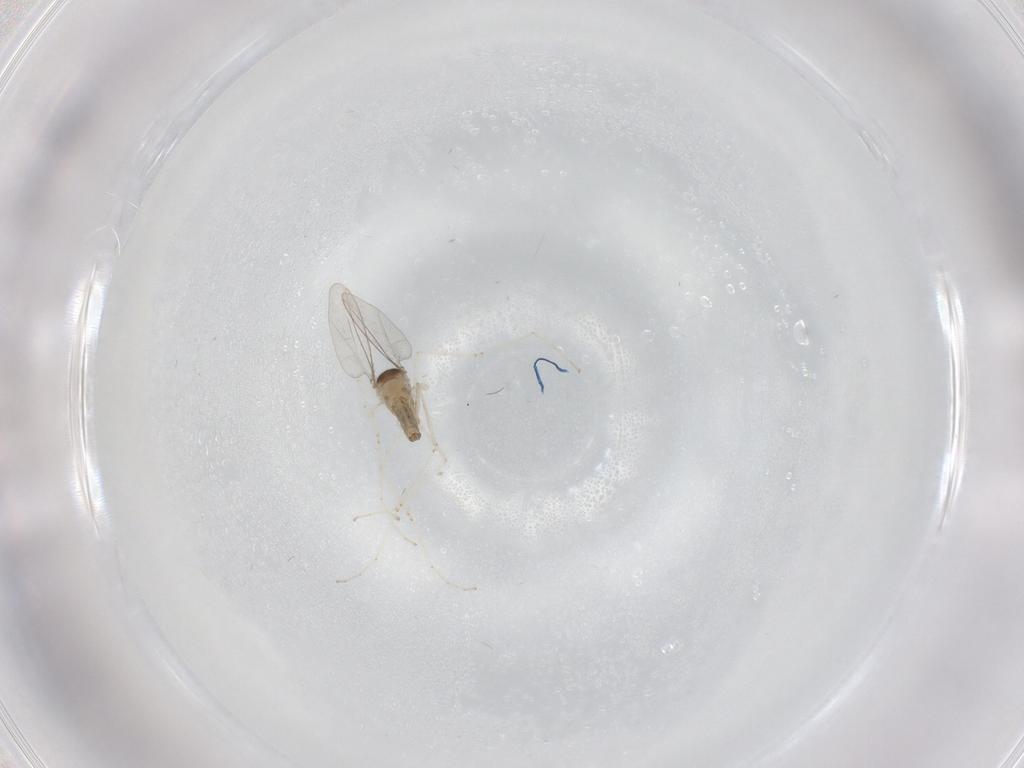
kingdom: Animalia
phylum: Arthropoda
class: Insecta
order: Diptera
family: Cecidomyiidae
